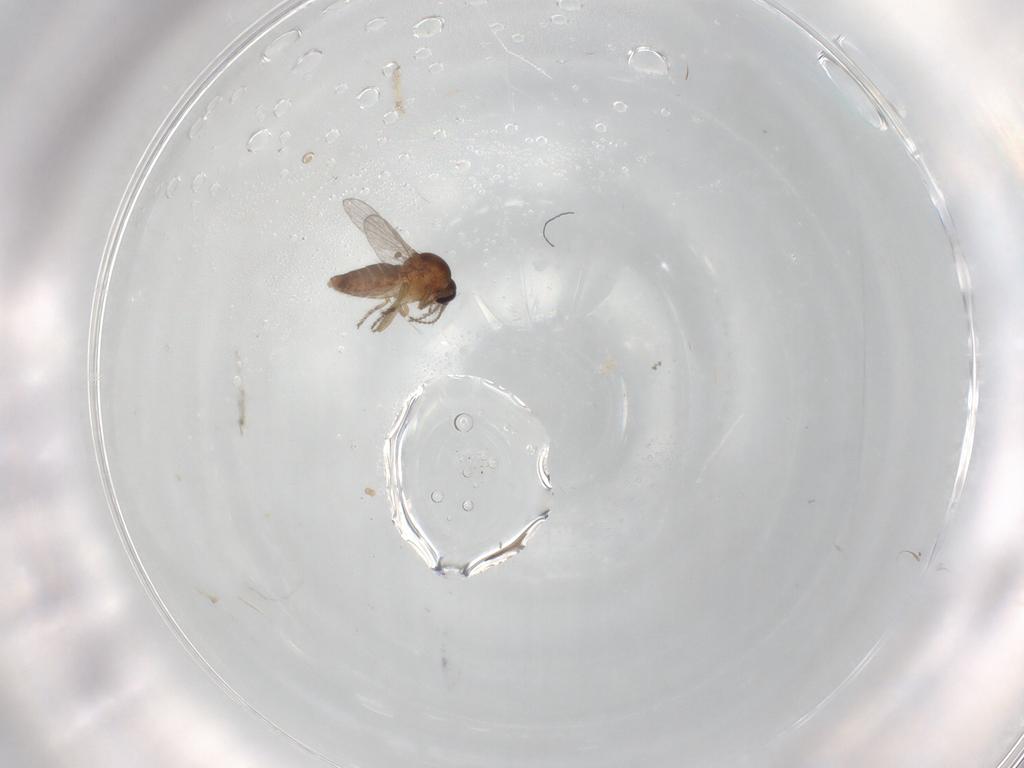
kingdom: Animalia
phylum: Arthropoda
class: Insecta
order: Diptera
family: Ceratopogonidae
